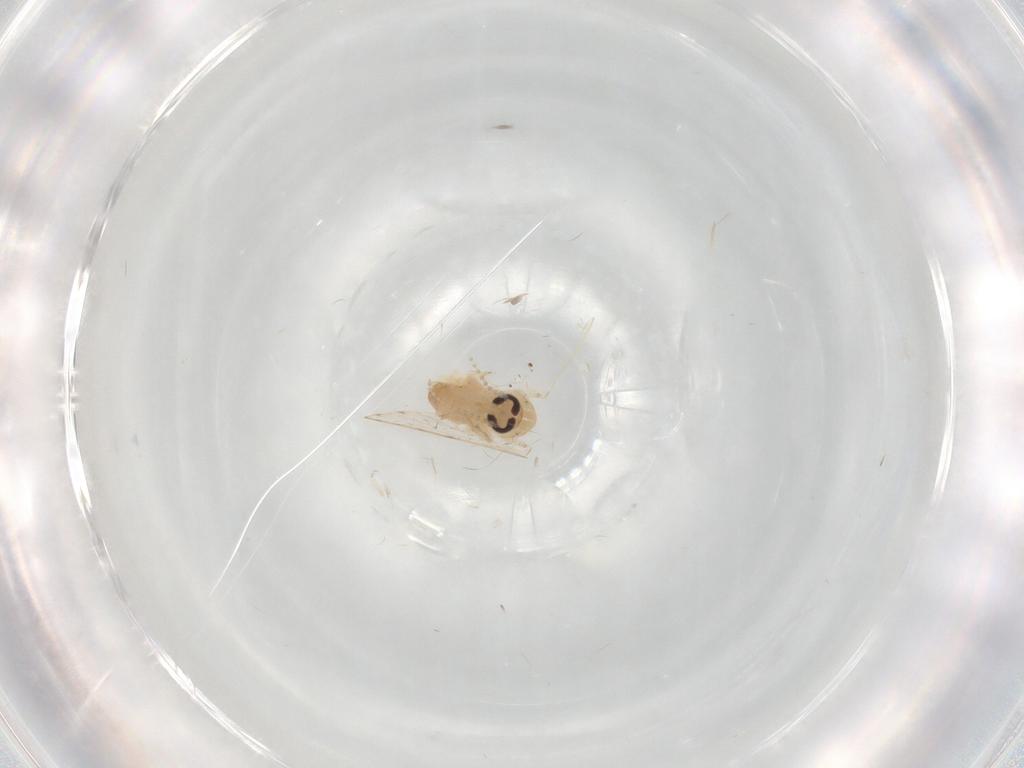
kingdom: Animalia
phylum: Arthropoda
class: Insecta
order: Diptera
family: Psychodidae
